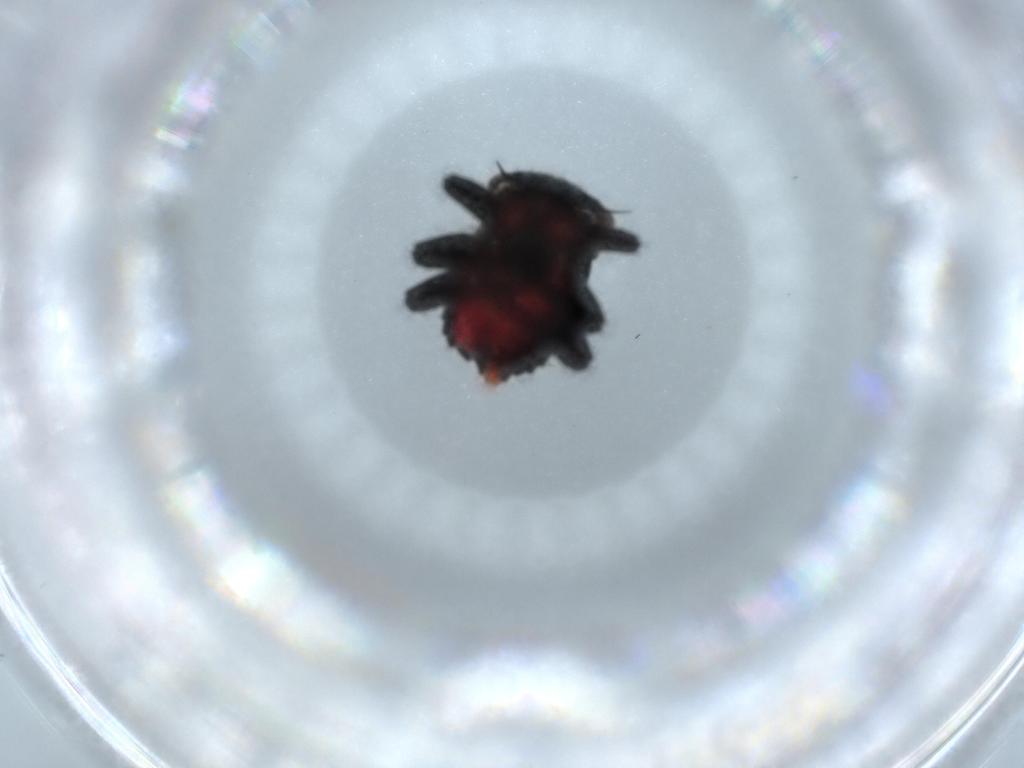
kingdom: Animalia
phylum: Arthropoda
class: Insecta
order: Hemiptera
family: Cicadellidae
